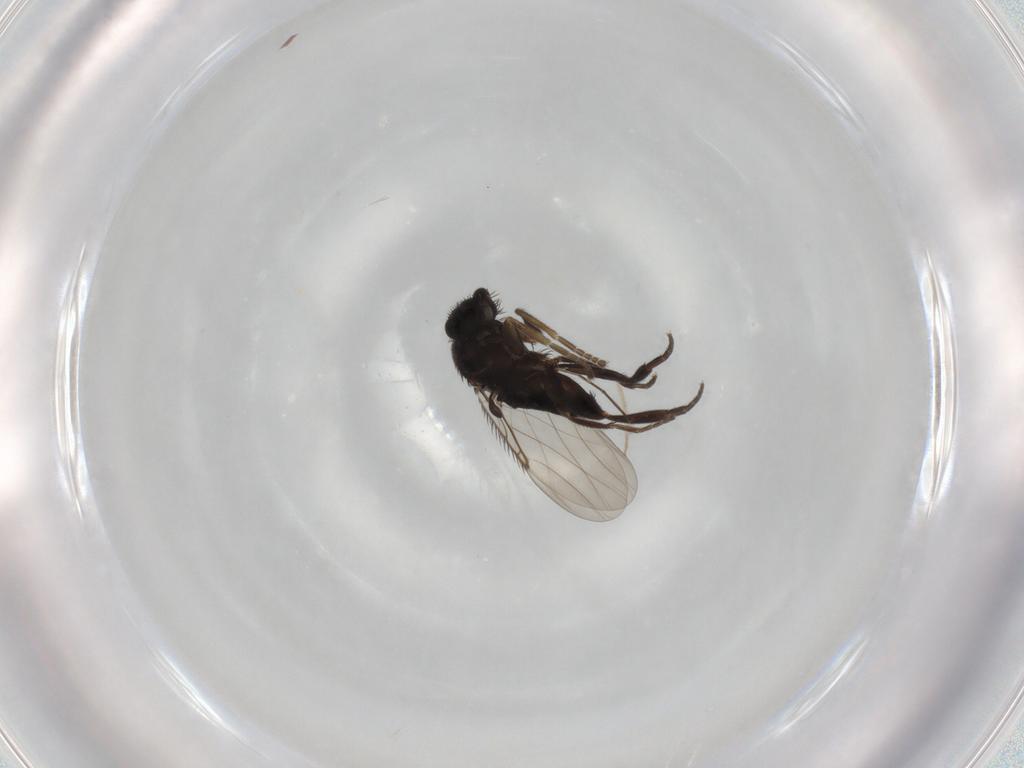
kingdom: Animalia
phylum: Arthropoda
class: Insecta
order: Diptera
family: Phoridae
